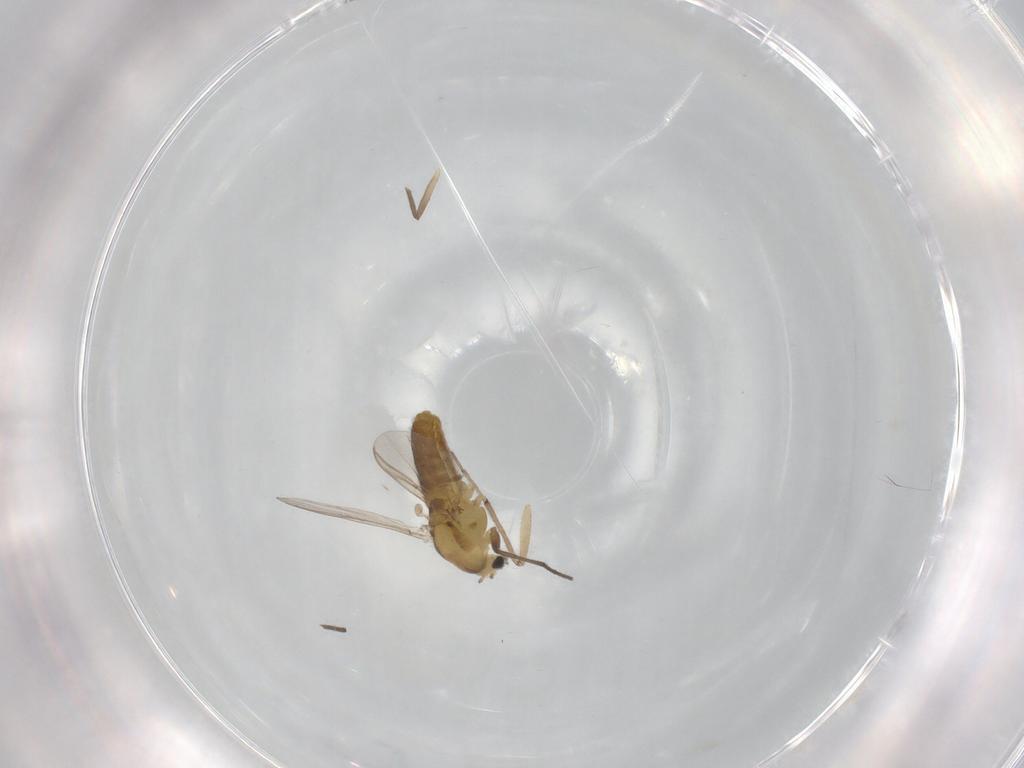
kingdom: Animalia
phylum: Arthropoda
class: Insecta
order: Diptera
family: Chironomidae
